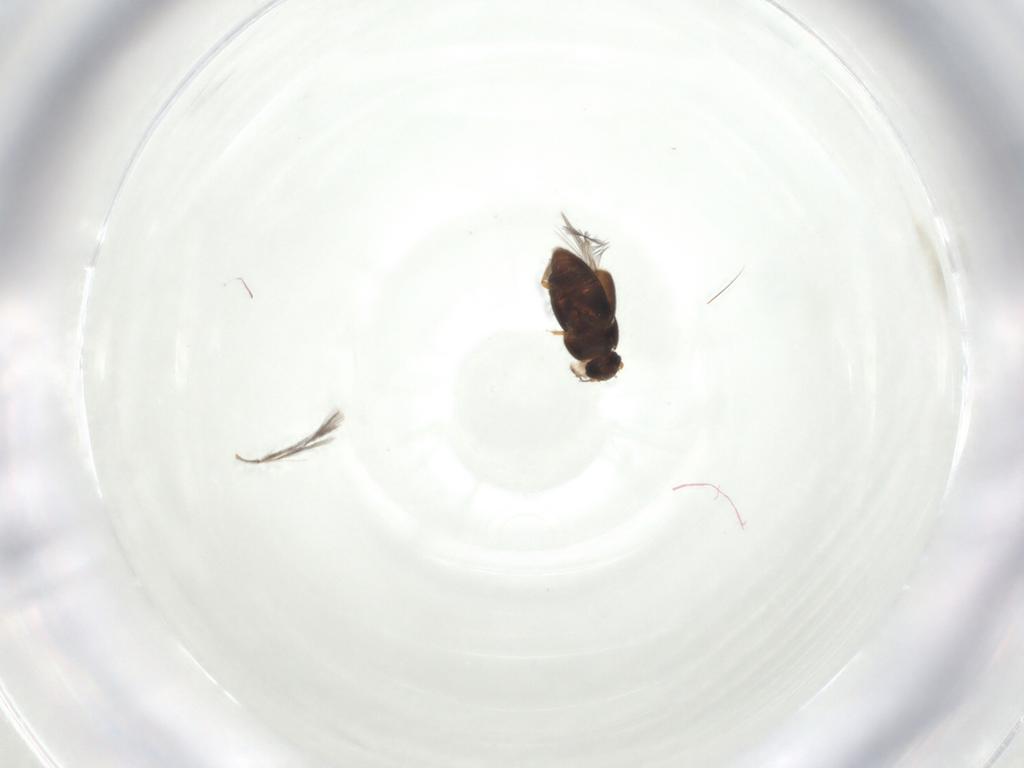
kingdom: Animalia
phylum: Arthropoda
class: Insecta
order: Coleoptera
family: Ptiliidae
